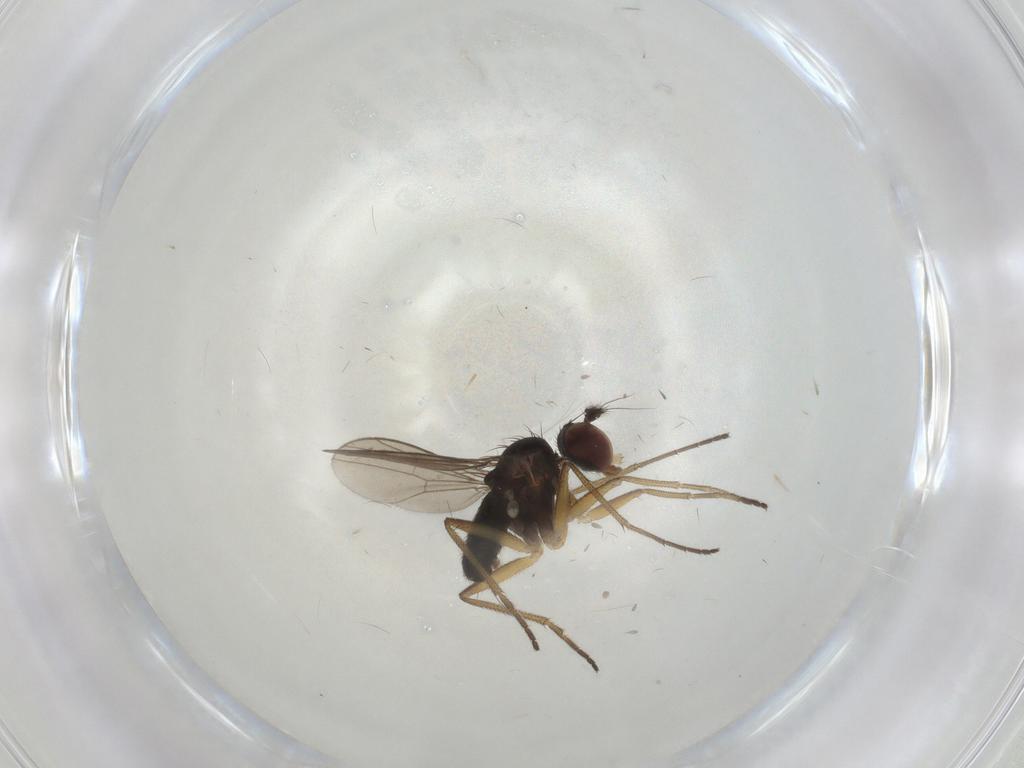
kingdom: Animalia
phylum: Arthropoda
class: Insecta
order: Diptera
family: Dolichopodidae
